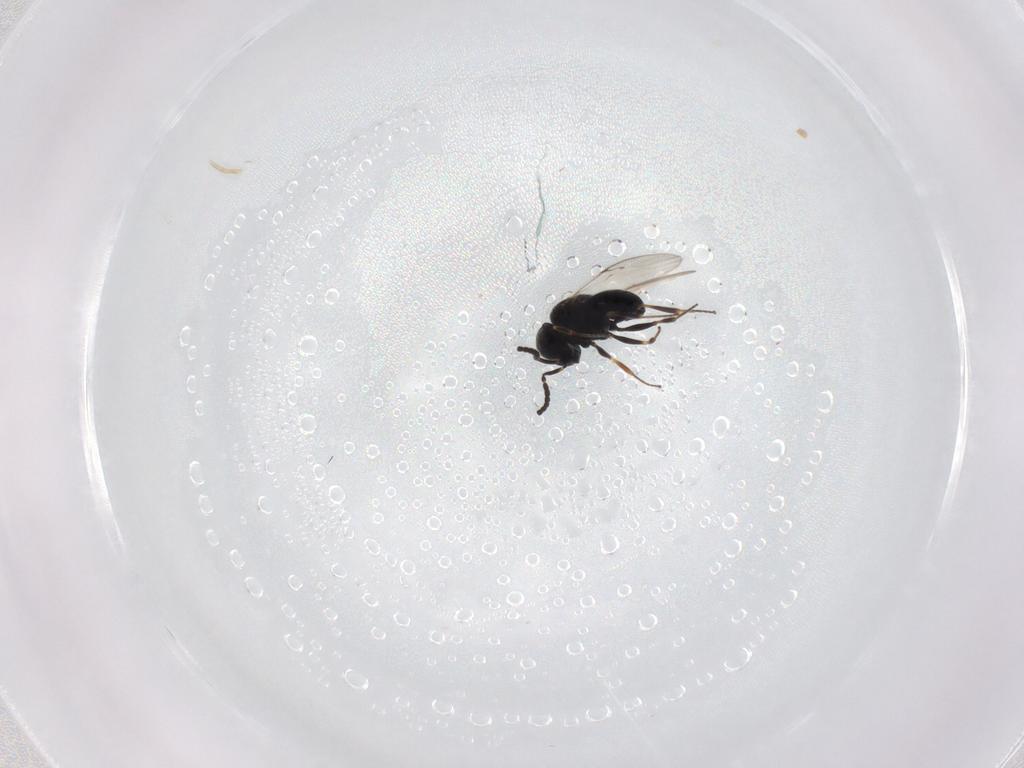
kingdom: Animalia
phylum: Arthropoda
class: Insecta
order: Hymenoptera
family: Scelionidae
